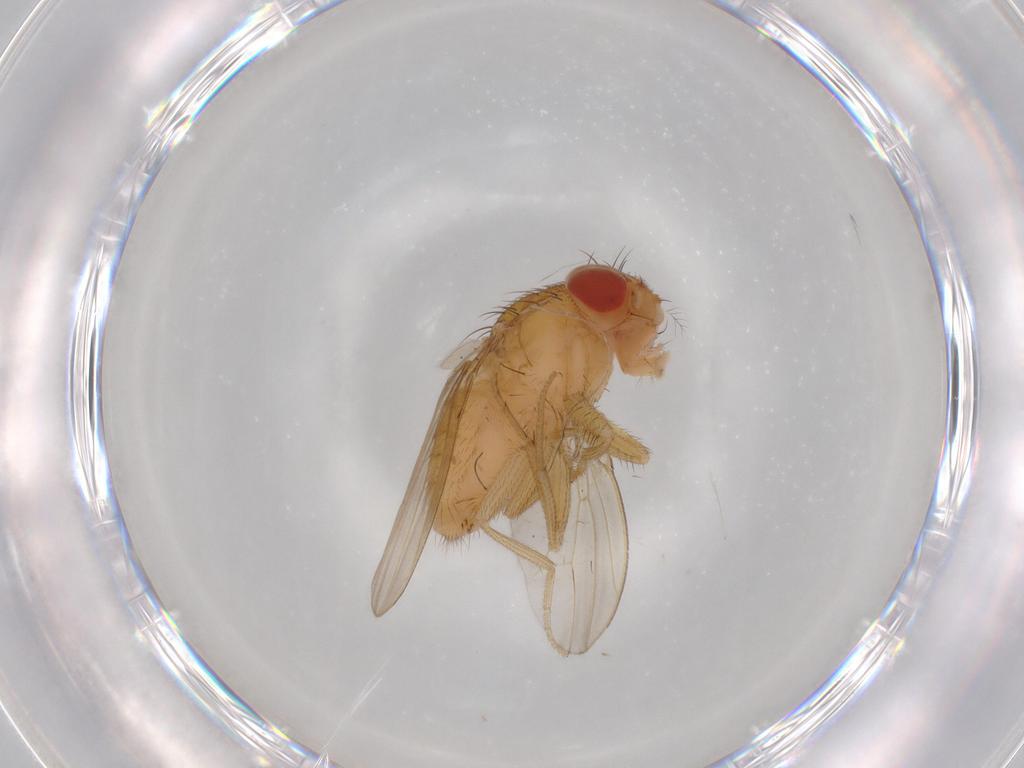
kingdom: Animalia
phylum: Arthropoda
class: Insecta
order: Diptera
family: Drosophilidae
